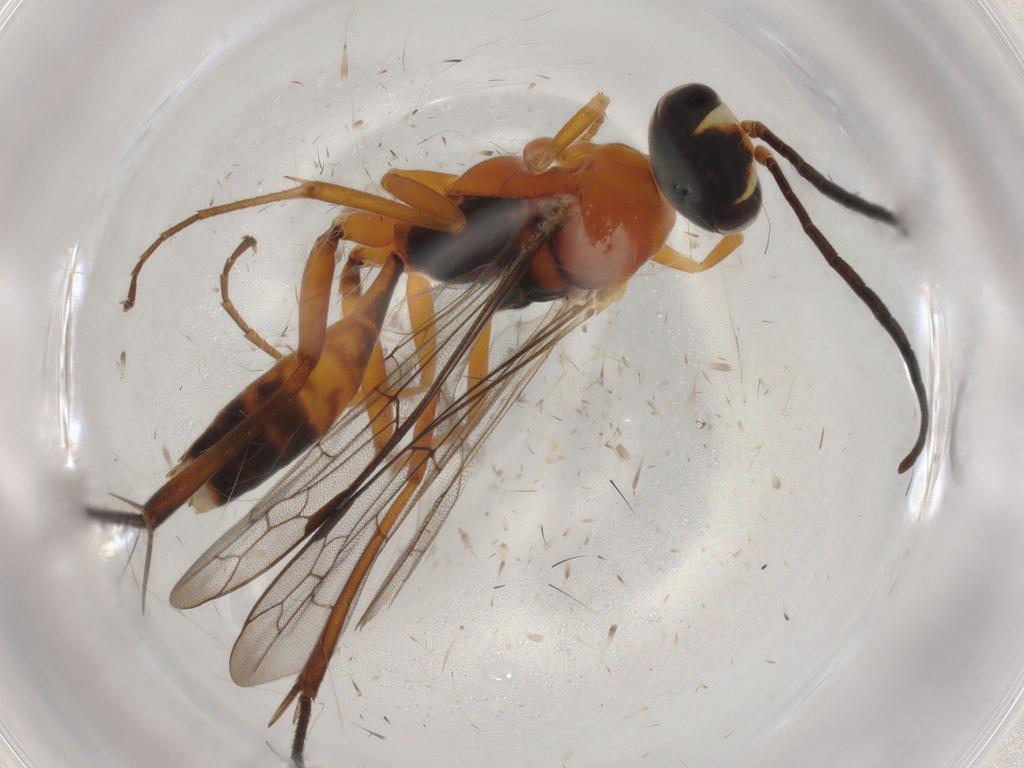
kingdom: Animalia
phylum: Arthropoda
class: Insecta
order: Hymenoptera
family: Pompilidae
